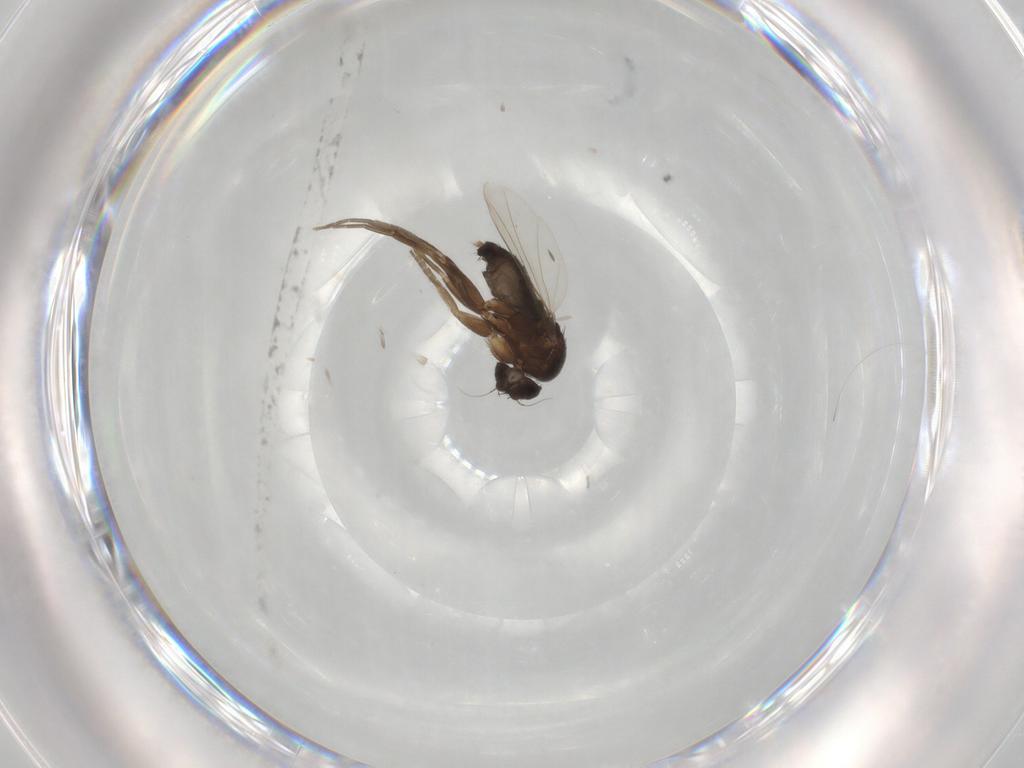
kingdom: Animalia
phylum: Arthropoda
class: Insecta
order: Diptera
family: Phoridae
